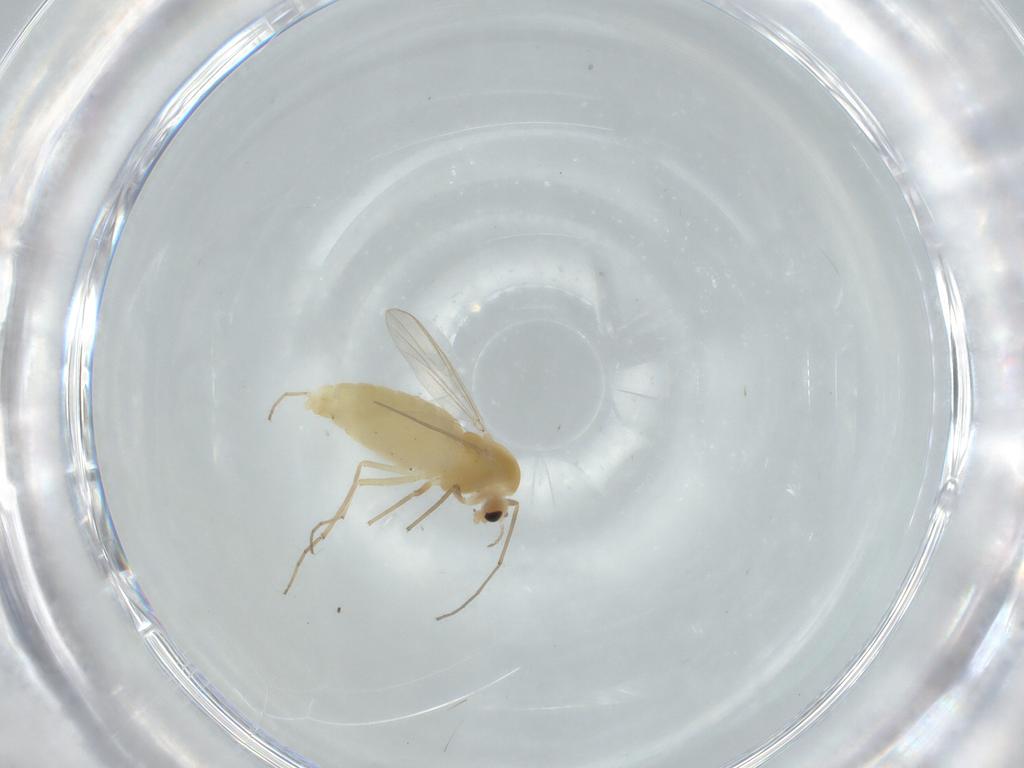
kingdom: Animalia
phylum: Arthropoda
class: Insecta
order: Diptera
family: Chironomidae
